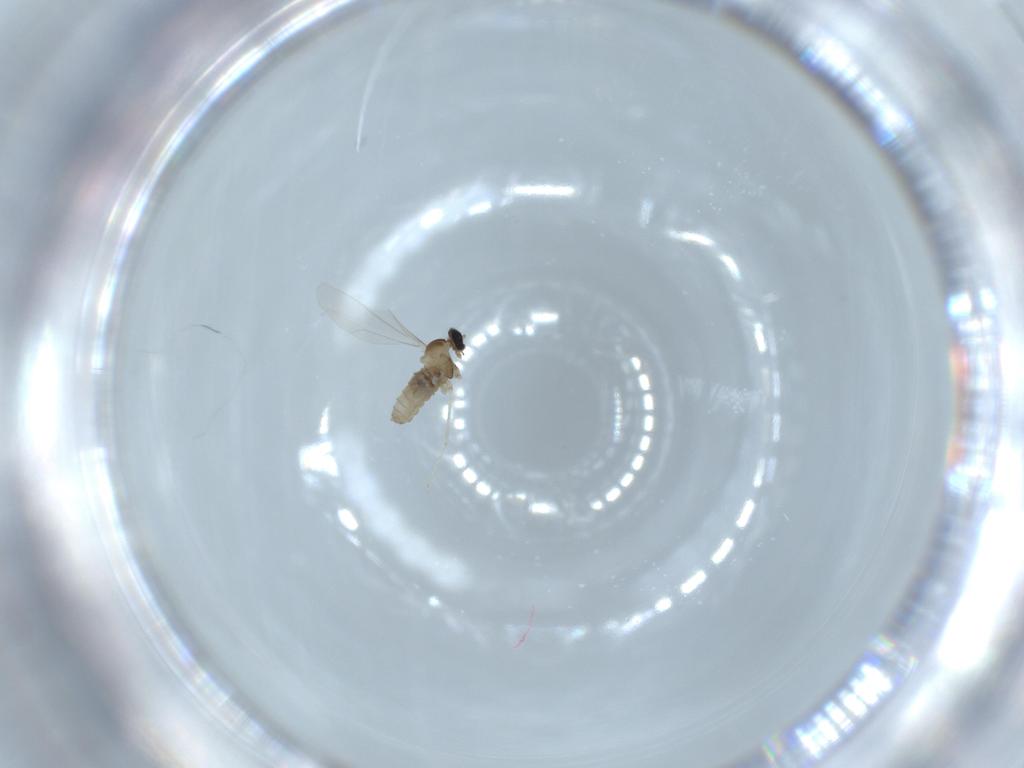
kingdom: Animalia
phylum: Arthropoda
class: Insecta
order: Diptera
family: Cecidomyiidae
